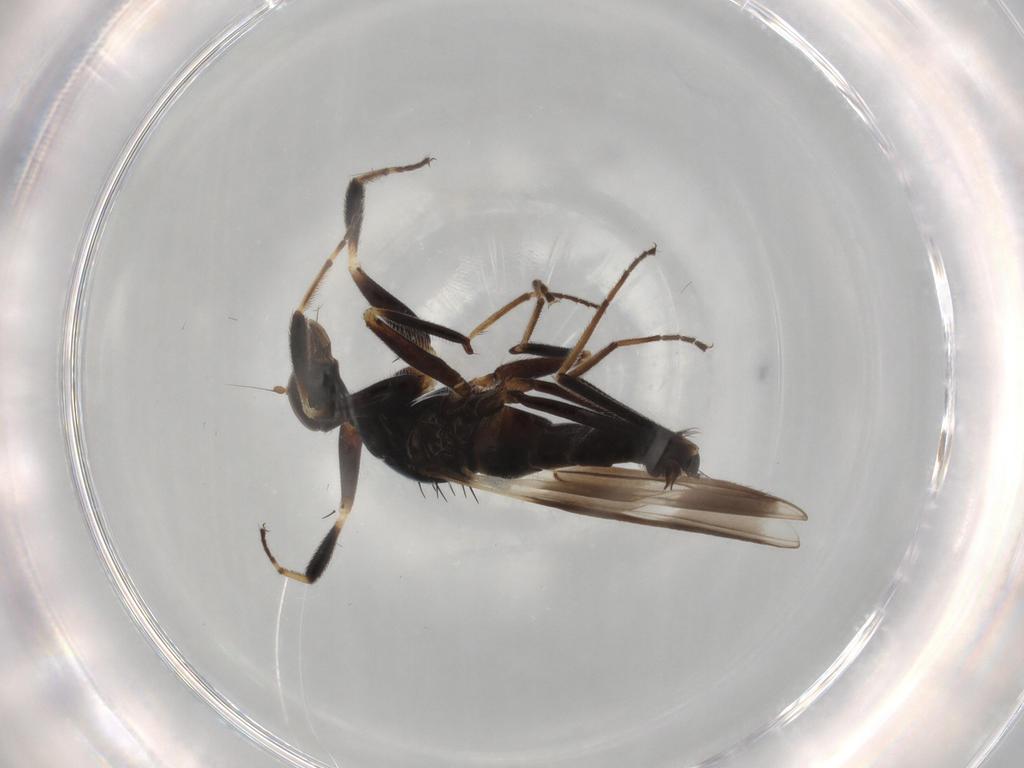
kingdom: Animalia
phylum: Arthropoda
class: Insecta
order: Diptera
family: Hybotidae
